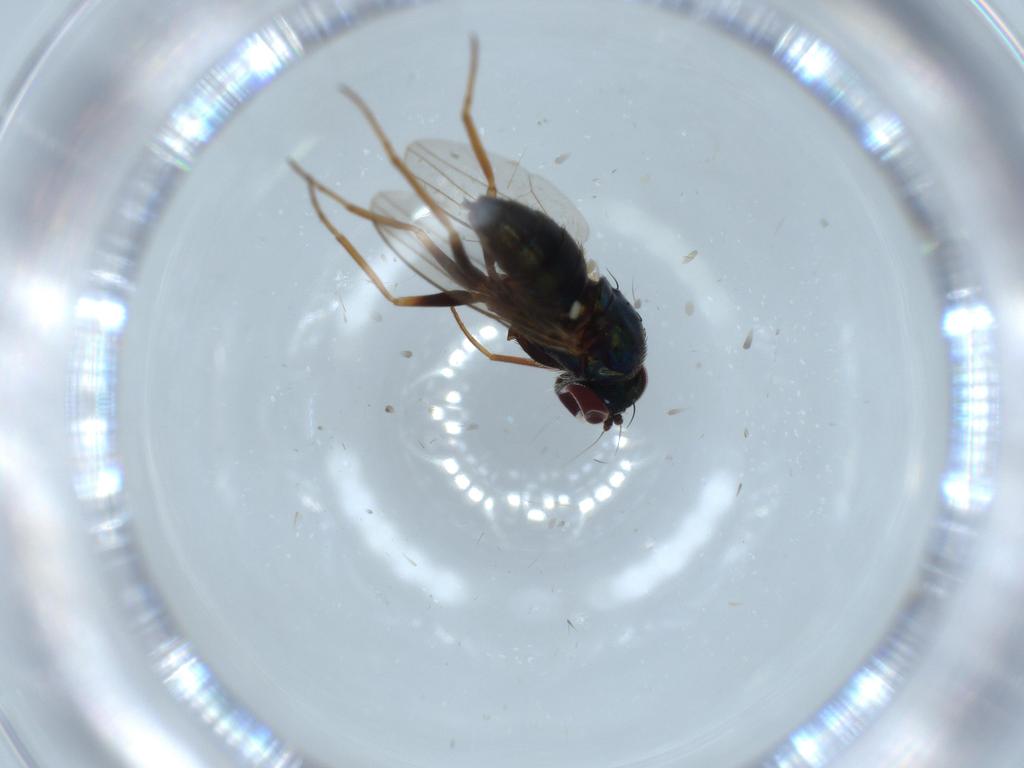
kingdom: Animalia
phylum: Arthropoda
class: Insecta
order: Diptera
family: Dolichopodidae
